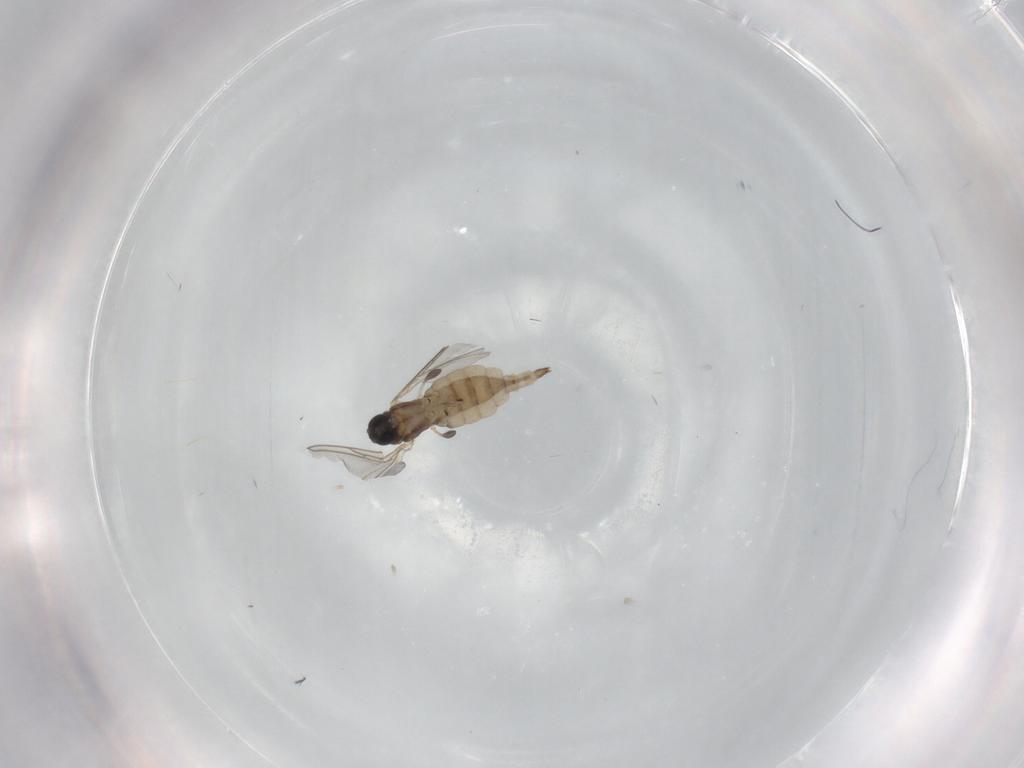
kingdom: Animalia
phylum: Arthropoda
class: Insecta
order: Diptera
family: Sciaridae
